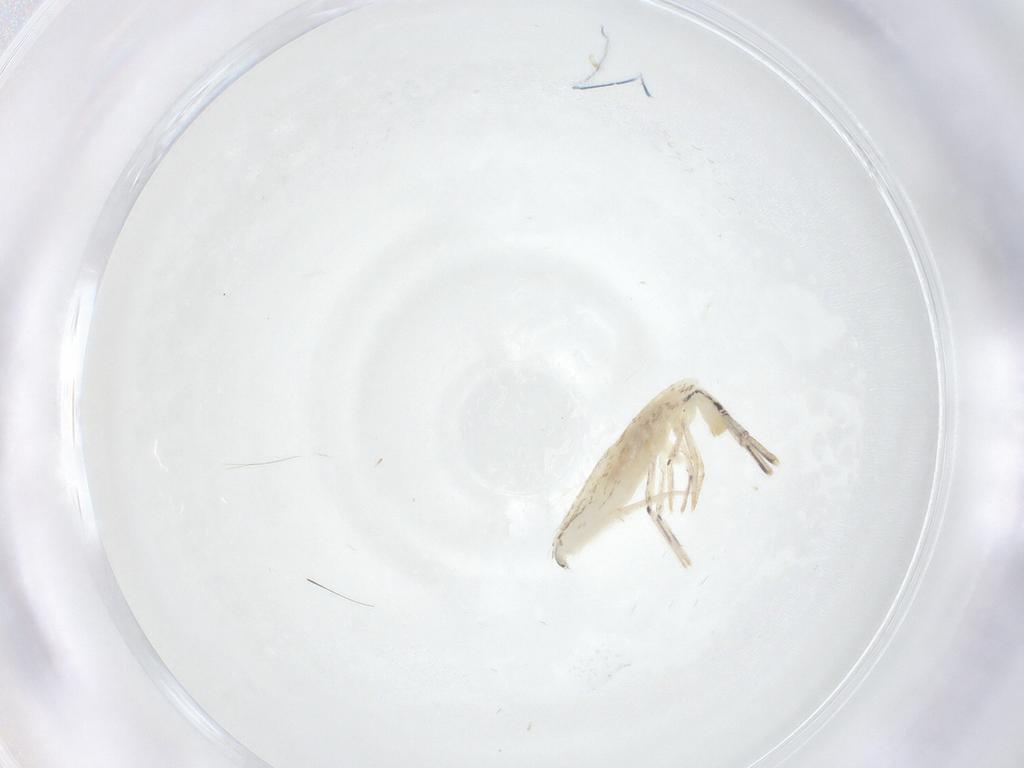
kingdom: Animalia
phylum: Arthropoda
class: Collembola
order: Entomobryomorpha
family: Entomobryidae
